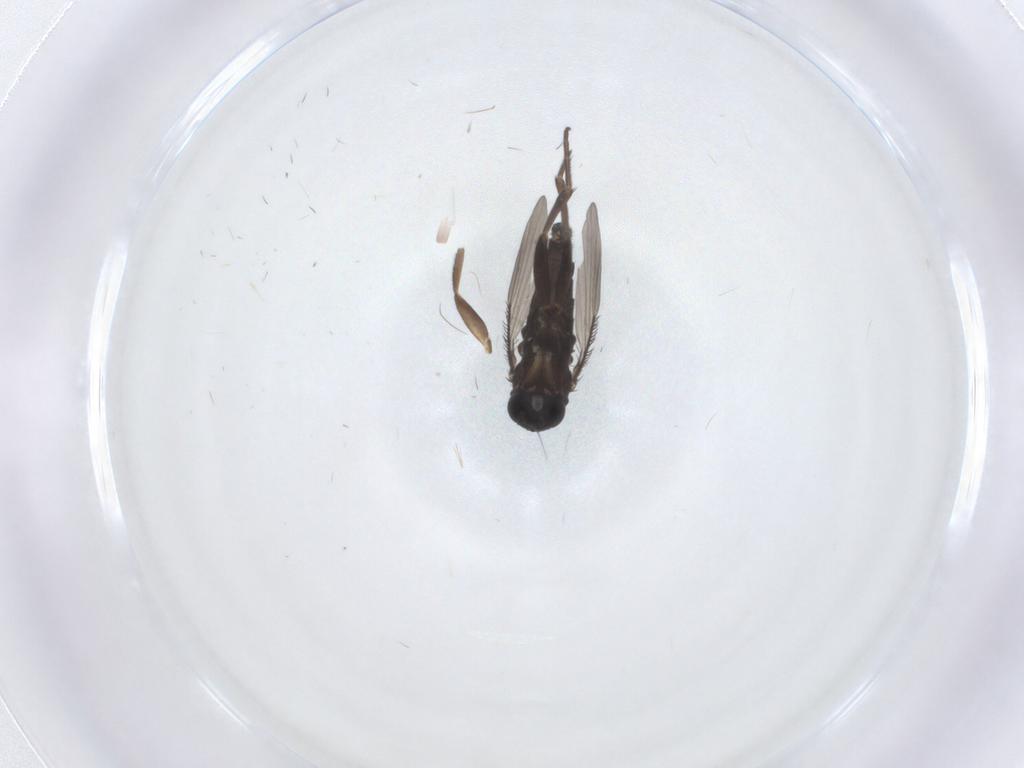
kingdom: Animalia
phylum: Arthropoda
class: Insecta
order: Diptera
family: Phoridae
